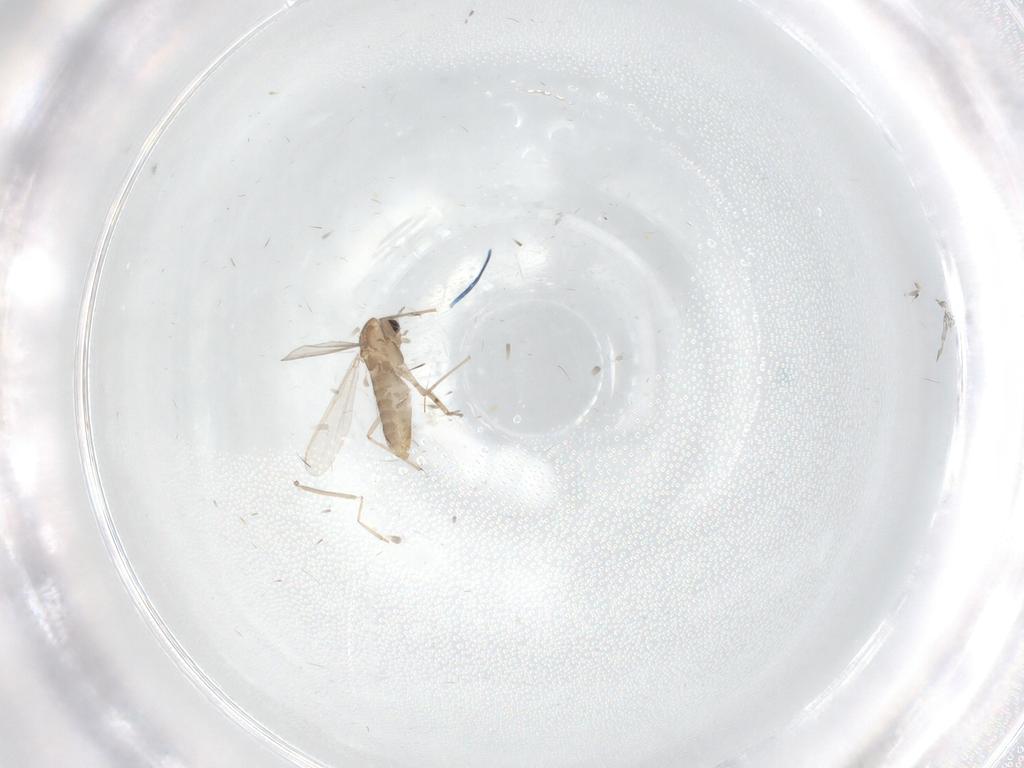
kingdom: Animalia
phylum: Arthropoda
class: Insecta
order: Diptera
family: Chironomidae
